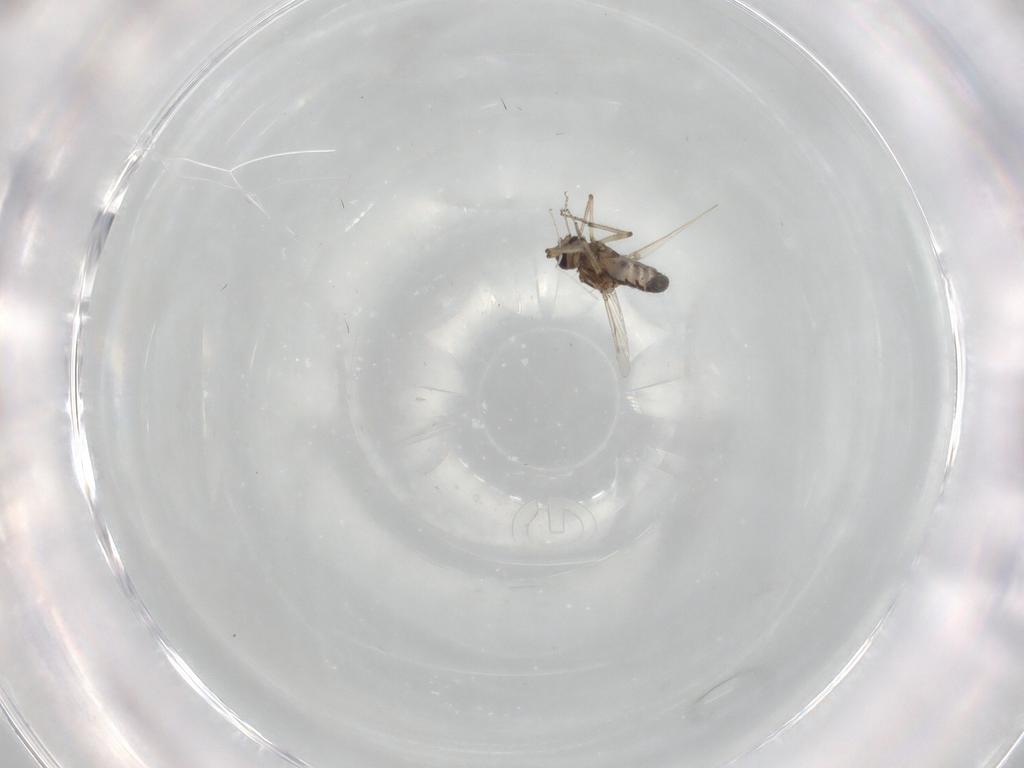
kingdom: Animalia
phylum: Arthropoda
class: Insecta
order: Diptera
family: Ceratopogonidae
